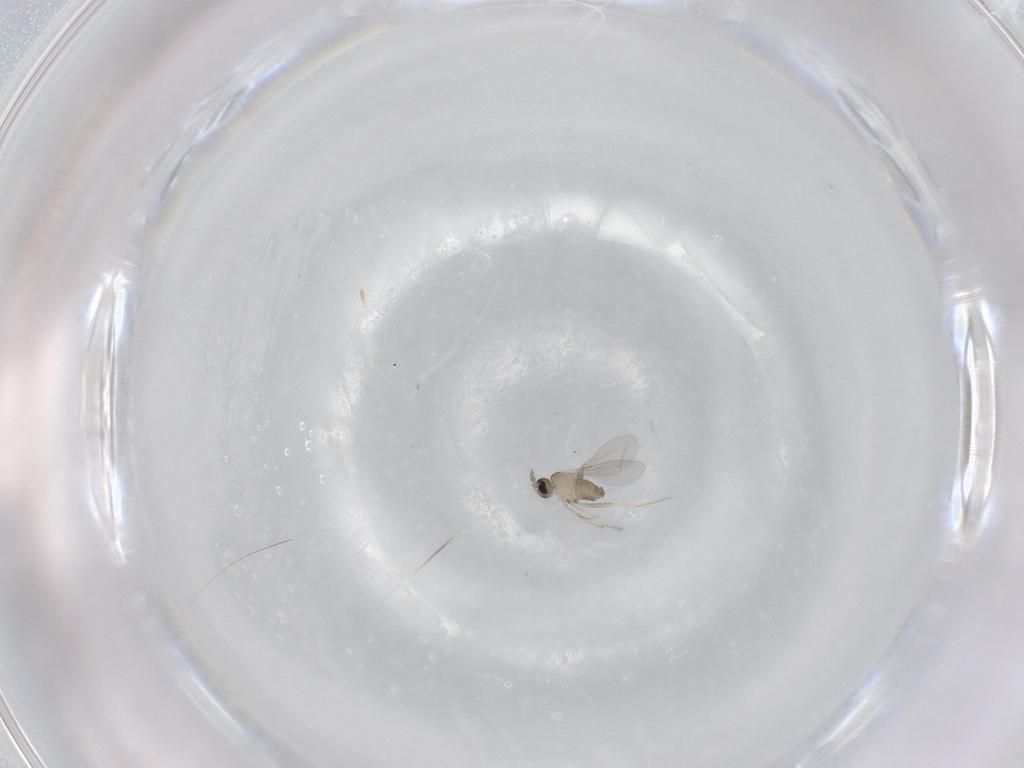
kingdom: Animalia
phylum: Arthropoda
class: Insecta
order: Diptera
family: Cecidomyiidae
